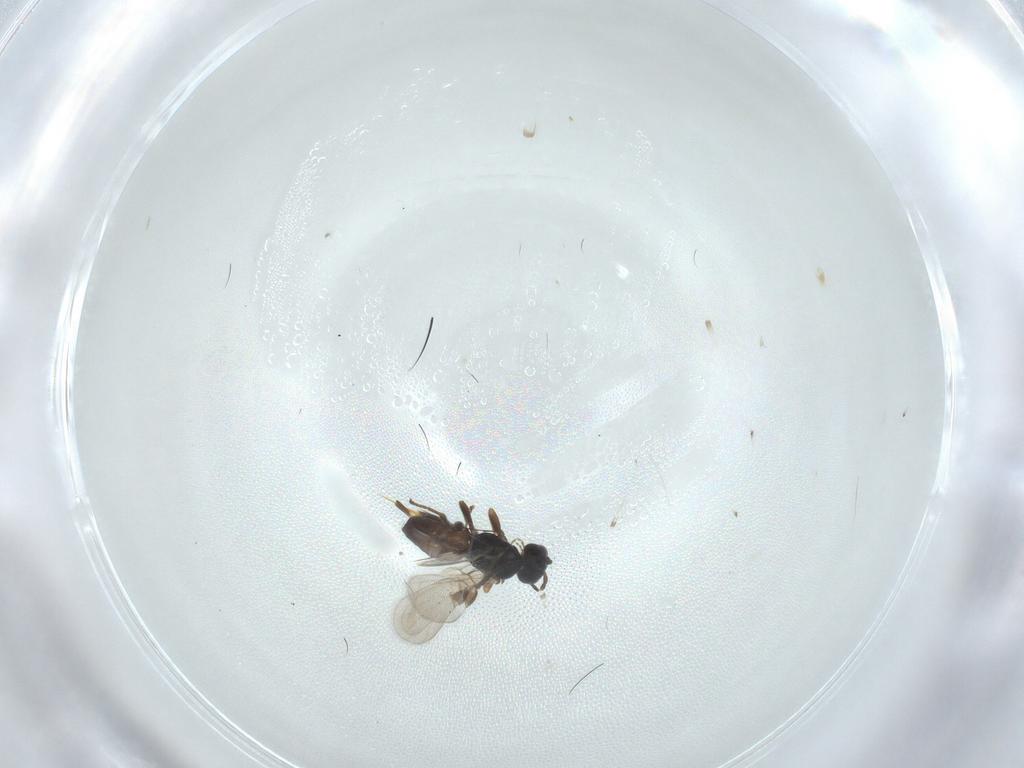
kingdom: Animalia
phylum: Arthropoda
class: Insecta
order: Hymenoptera
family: Braconidae
